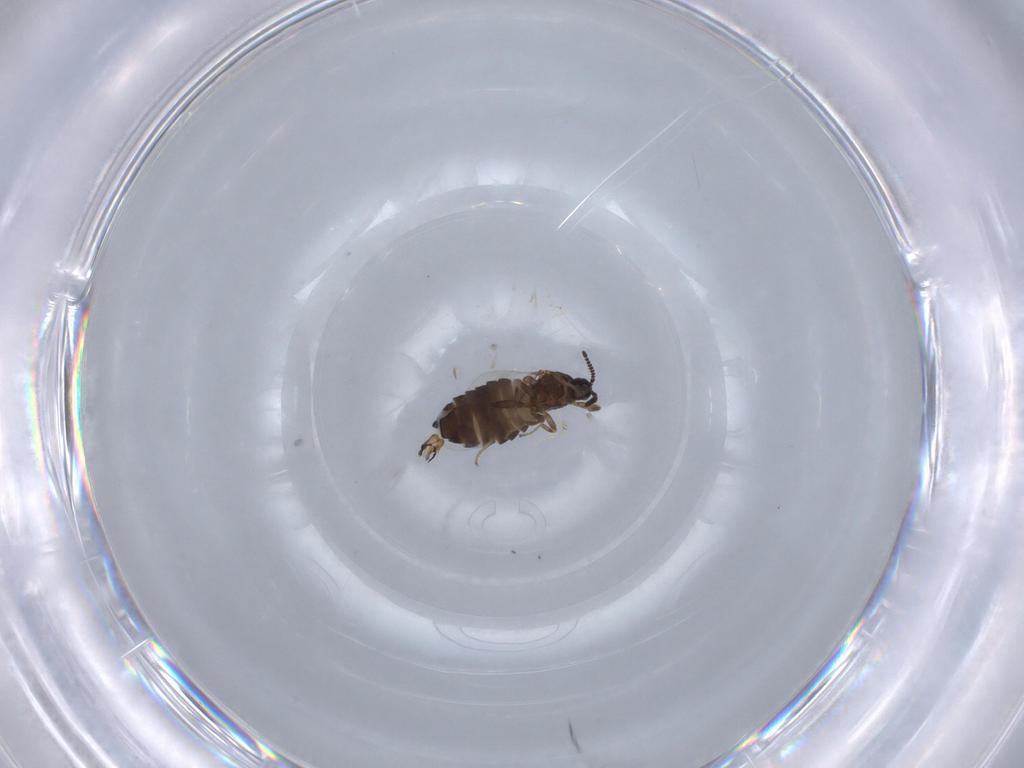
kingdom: Animalia
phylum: Arthropoda
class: Insecta
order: Diptera
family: Scatopsidae
